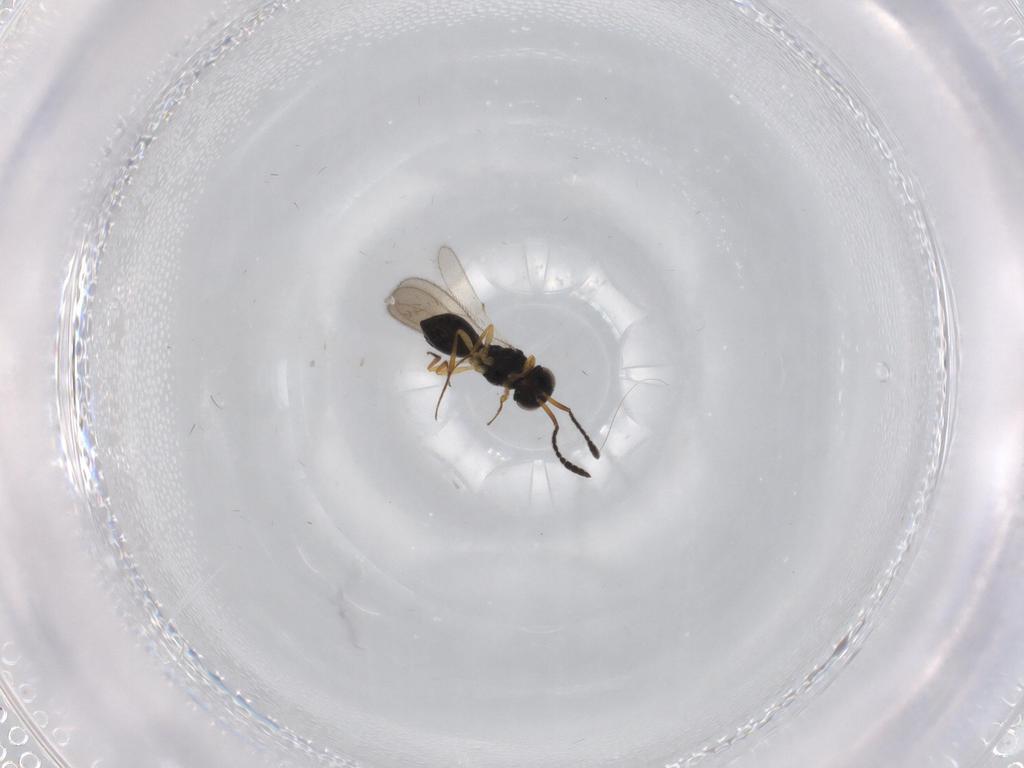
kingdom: Animalia
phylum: Arthropoda
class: Insecta
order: Hymenoptera
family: Scelionidae
